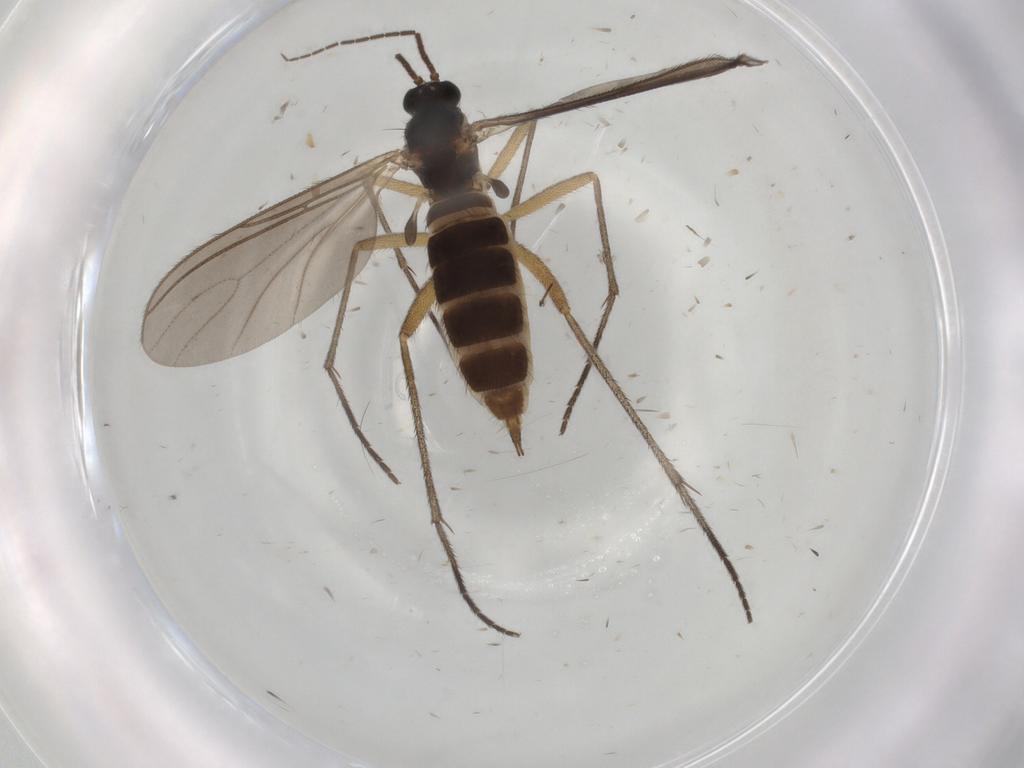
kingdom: Animalia
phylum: Arthropoda
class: Insecta
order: Diptera
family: Sciaridae
